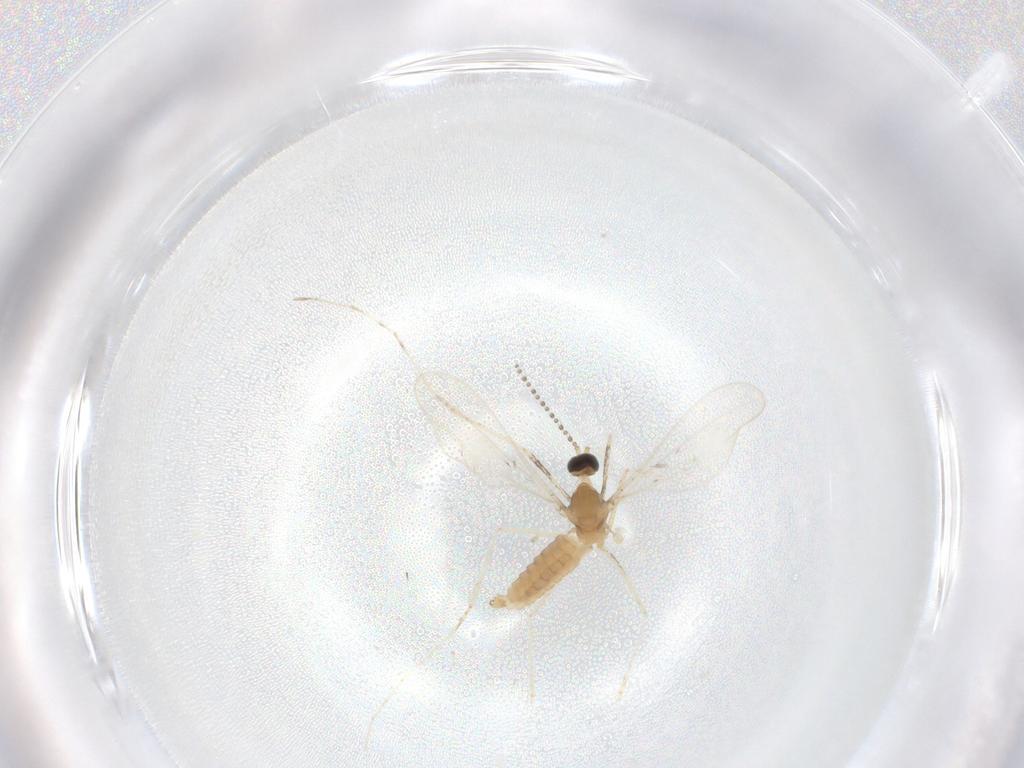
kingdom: Animalia
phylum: Arthropoda
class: Insecta
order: Diptera
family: Cecidomyiidae
